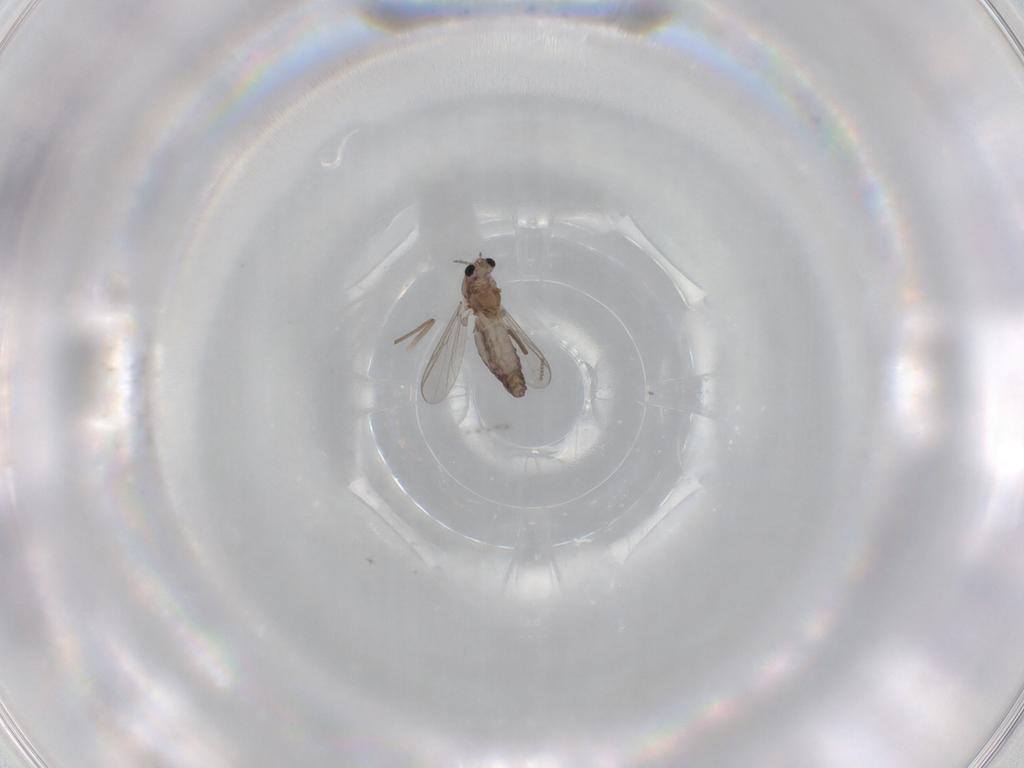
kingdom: Animalia
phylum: Arthropoda
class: Insecta
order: Diptera
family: Chironomidae
